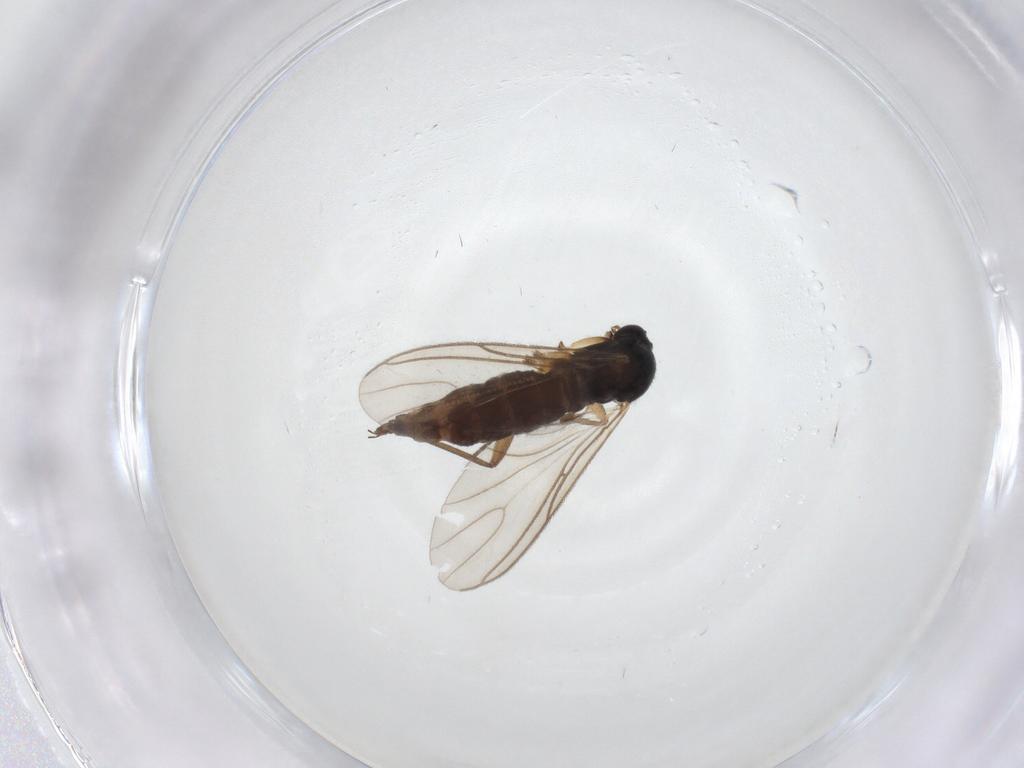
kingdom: Animalia
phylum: Arthropoda
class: Insecta
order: Diptera
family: Sciaridae
